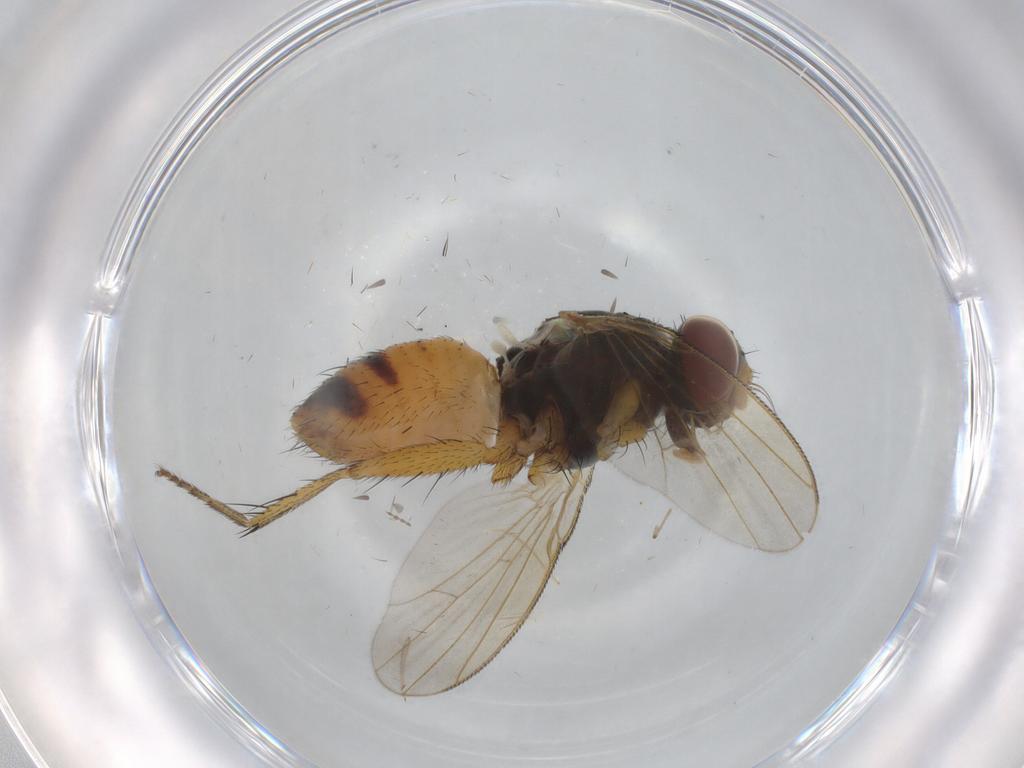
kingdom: Animalia
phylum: Arthropoda
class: Insecta
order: Diptera
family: Muscidae
